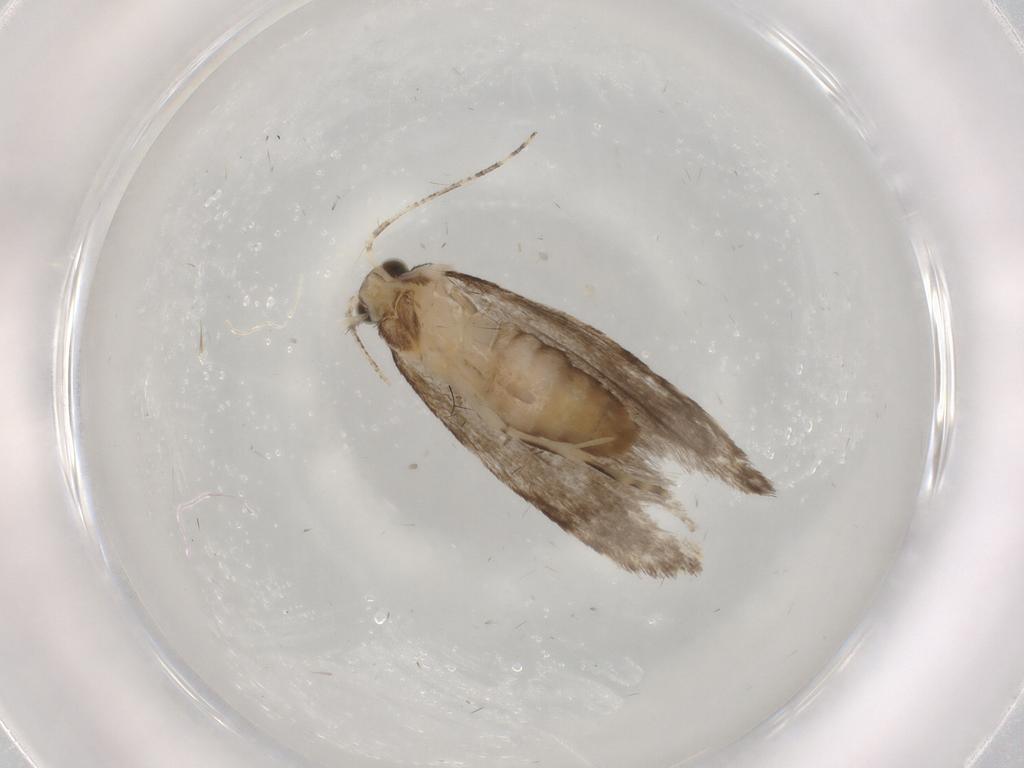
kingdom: Animalia
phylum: Arthropoda
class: Insecta
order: Lepidoptera
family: Tineidae
